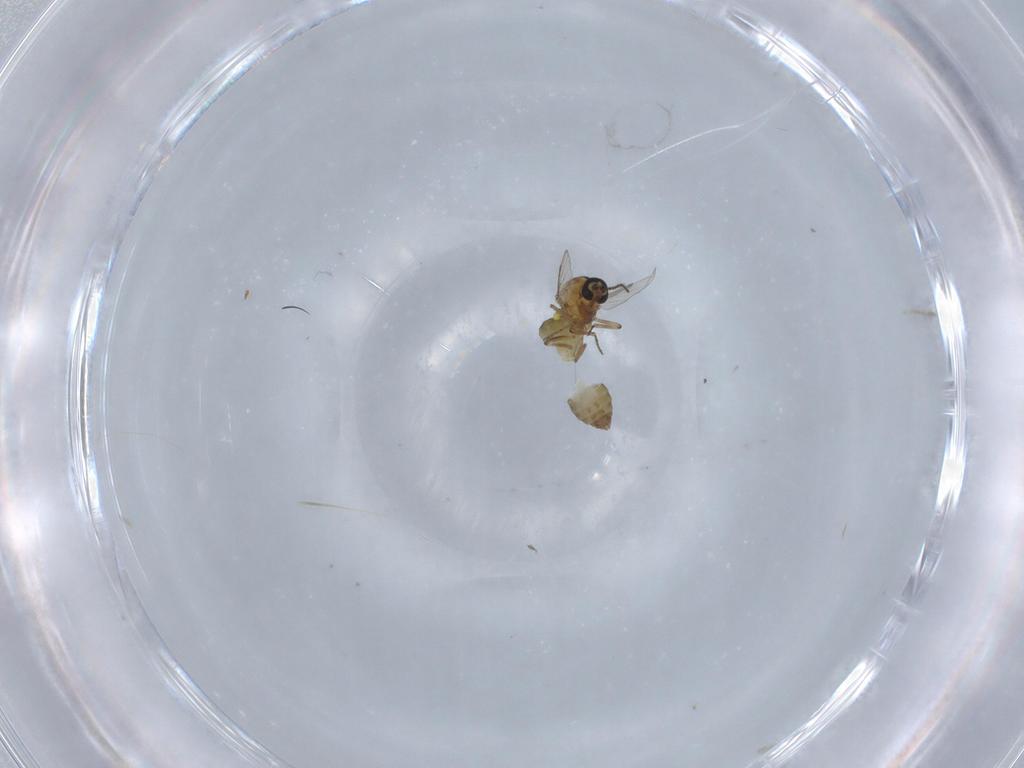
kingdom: Animalia
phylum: Arthropoda
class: Insecta
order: Diptera
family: Ceratopogonidae
